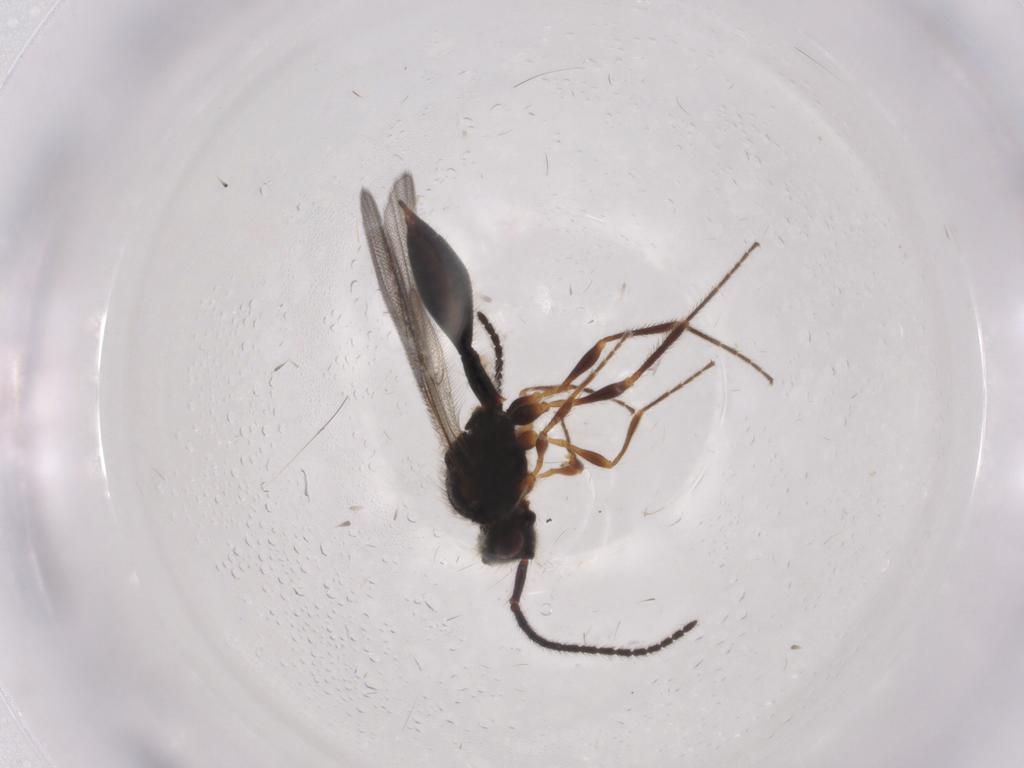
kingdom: Animalia
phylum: Arthropoda
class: Insecta
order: Hymenoptera
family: Diapriidae
